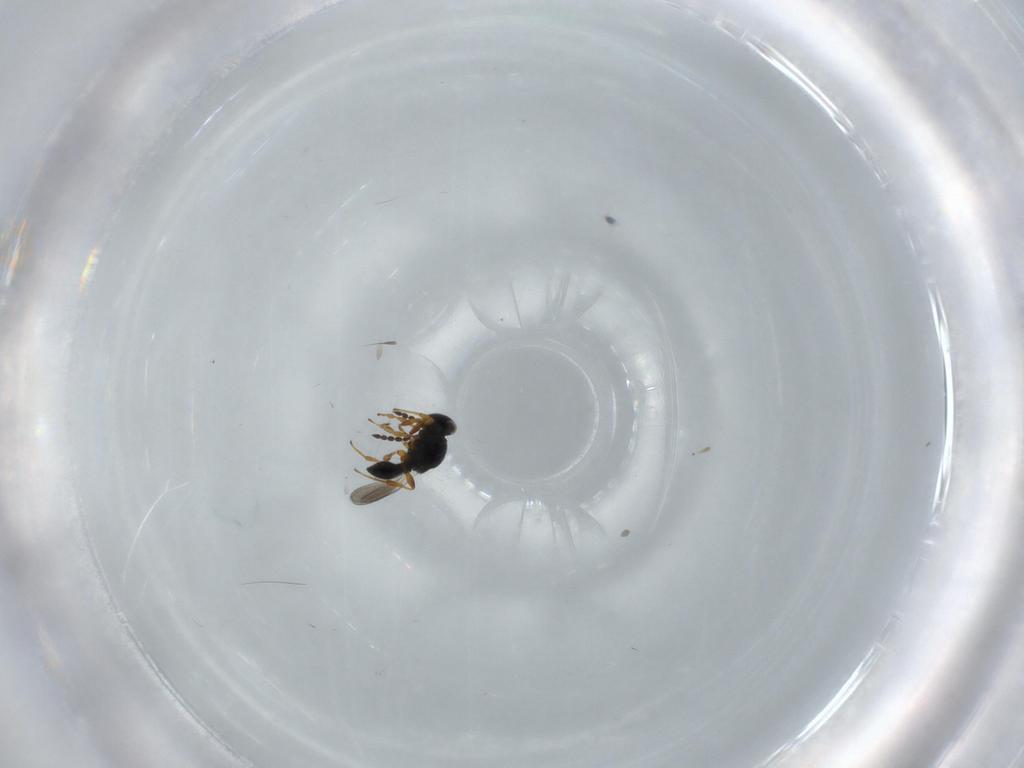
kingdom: Animalia
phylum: Arthropoda
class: Insecta
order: Hymenoptera
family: Platygastridae
